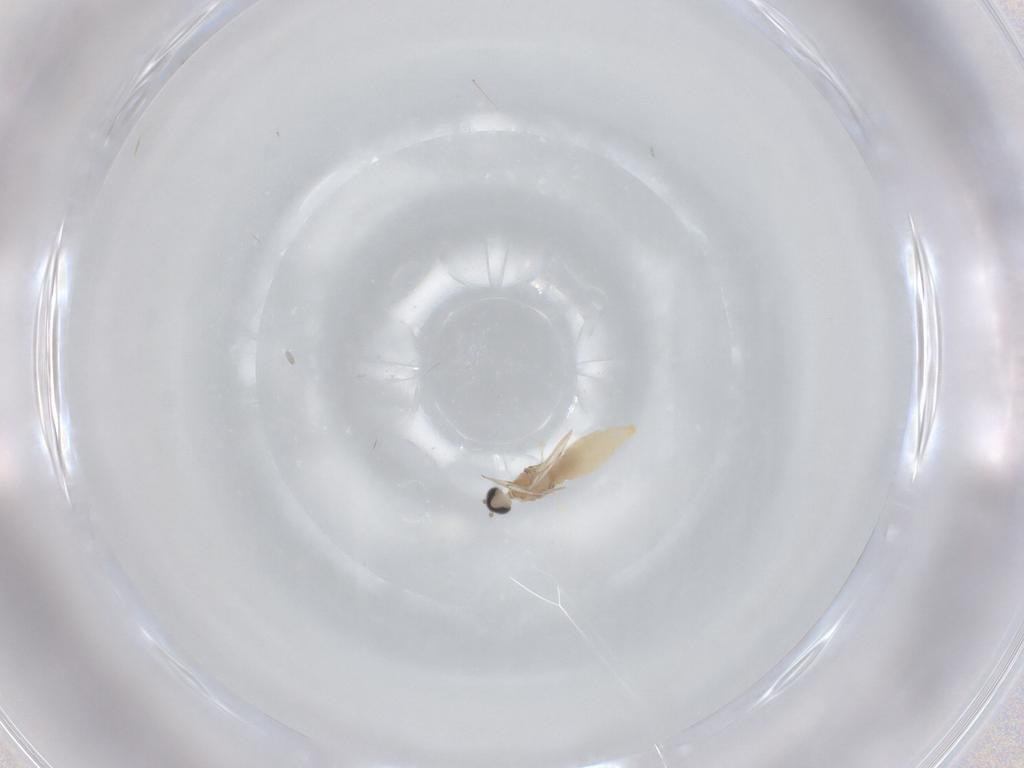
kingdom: Animalia
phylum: Arthropoda
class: Insecta
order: Diptera
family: Cecidomyiidae
